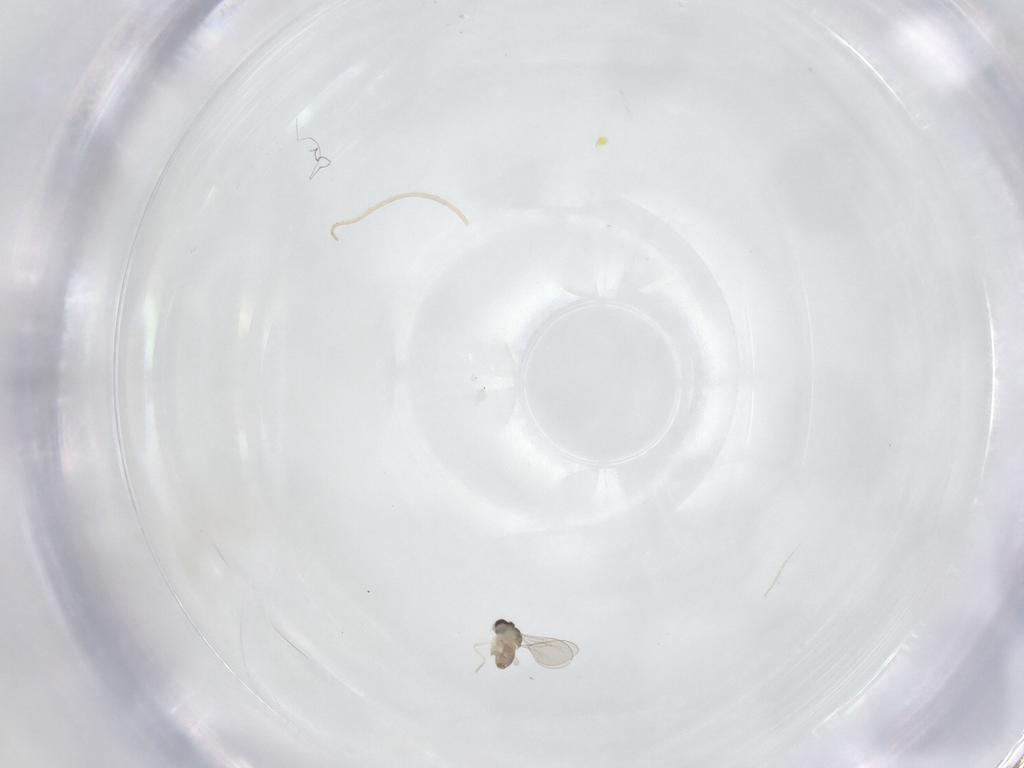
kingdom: Animalia
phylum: Arthropoda
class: Insecta
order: Diptera
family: Cecidomyiidae
